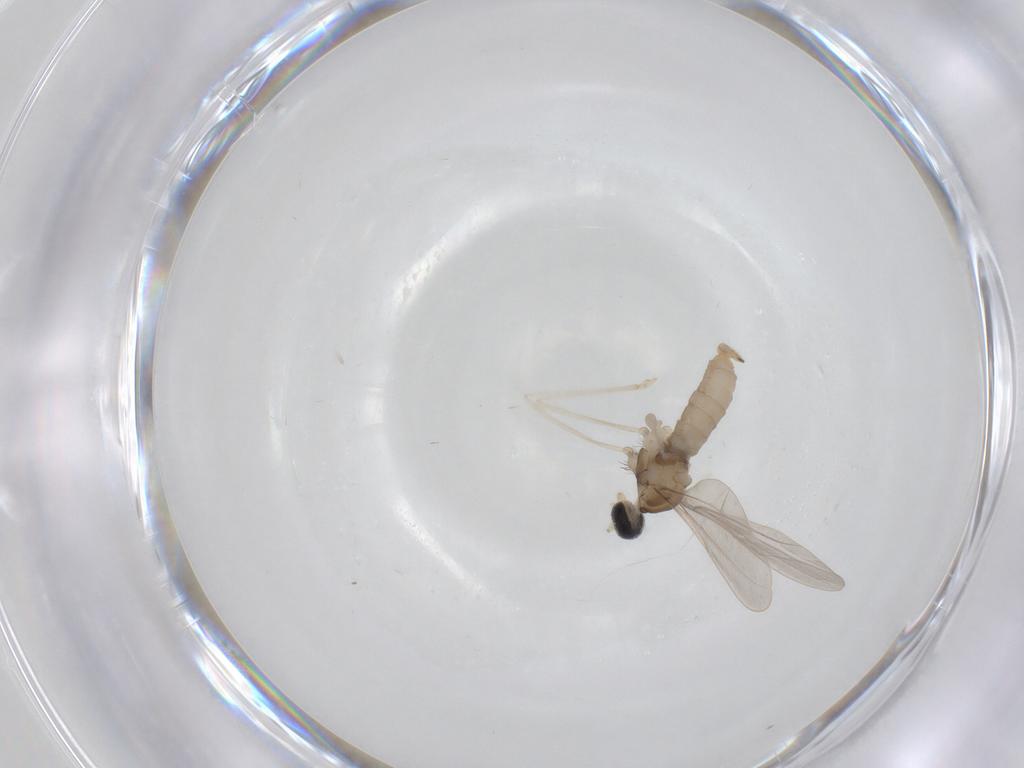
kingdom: Animalia
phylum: Arthropoda
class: Insecta
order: Diptera
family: Cecidomyiidae
